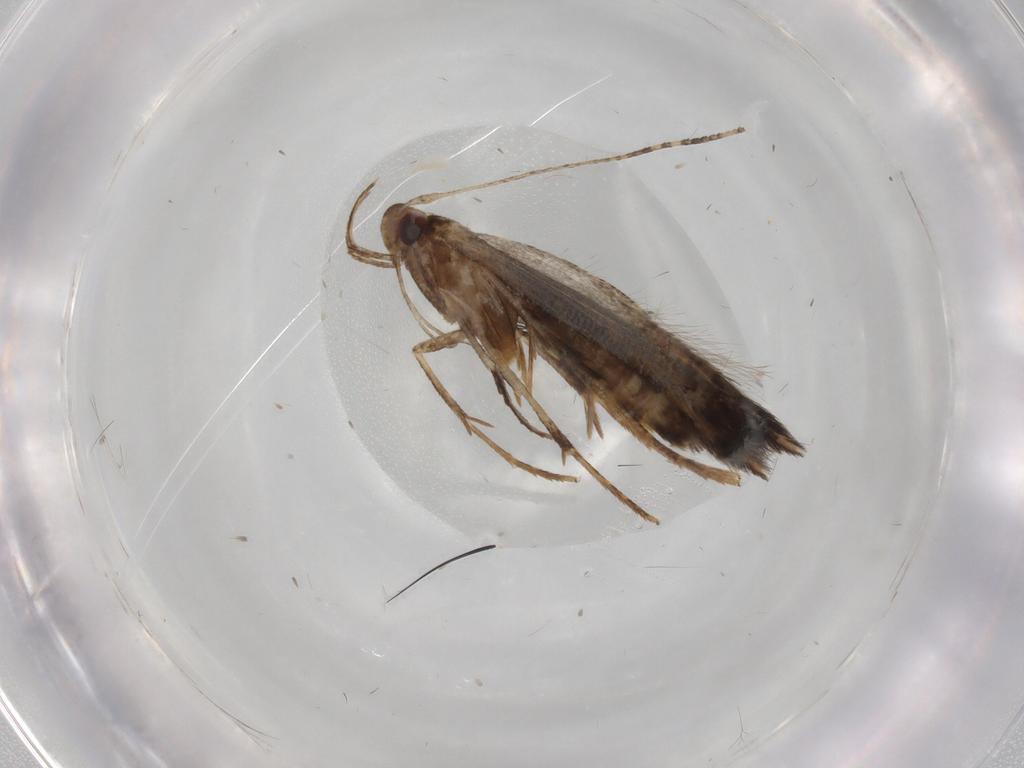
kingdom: Animalia
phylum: Arthropoda
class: Insecta
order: Lepidoptera
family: Cosmopterigidae
